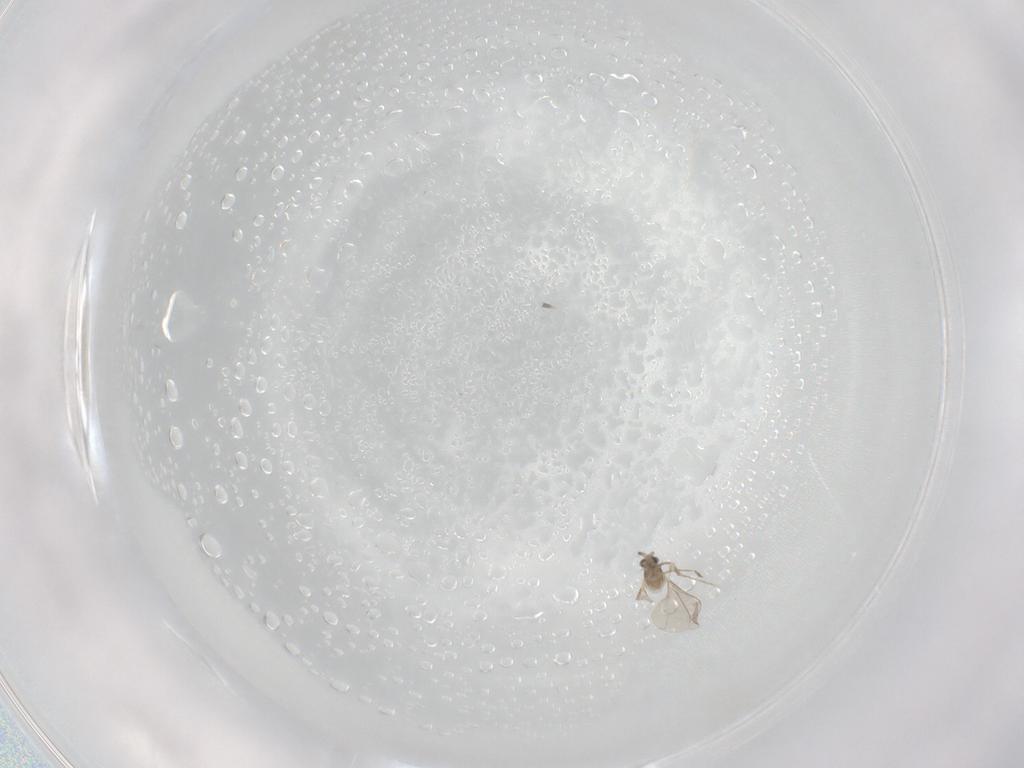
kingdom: Animalia
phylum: Arthropoda
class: Insecta
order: Diptera
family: Cecidomyiidae
